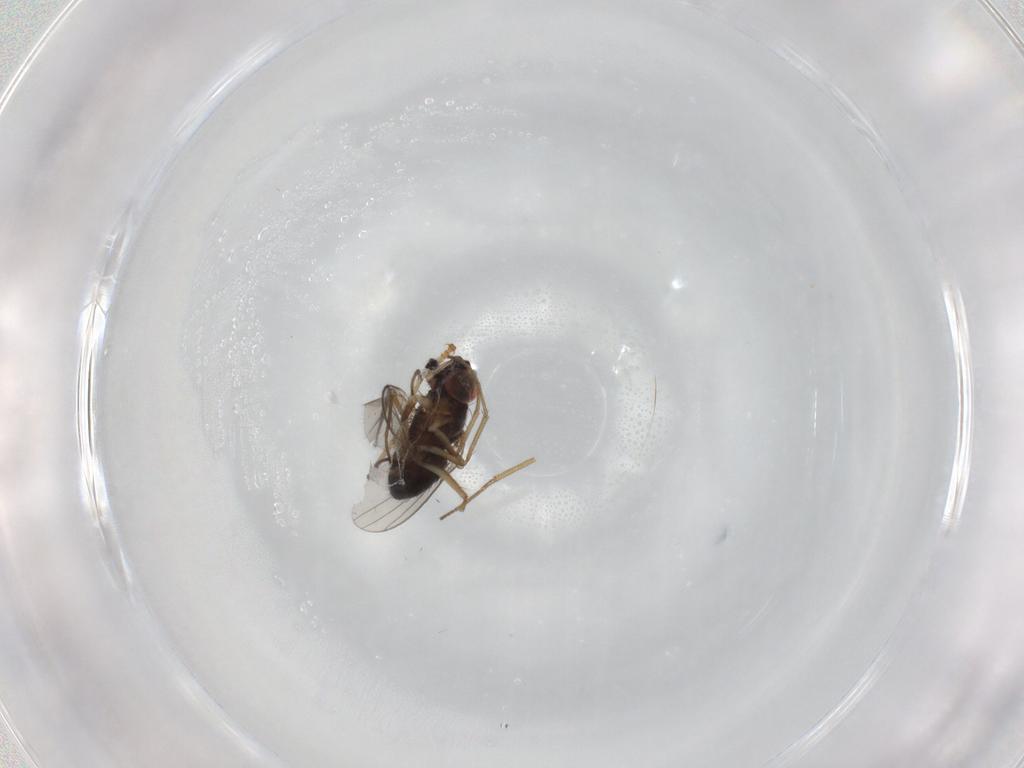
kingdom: Animalia
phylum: Arthropoda
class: Insecta
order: Diptera
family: Dolichopodidae
